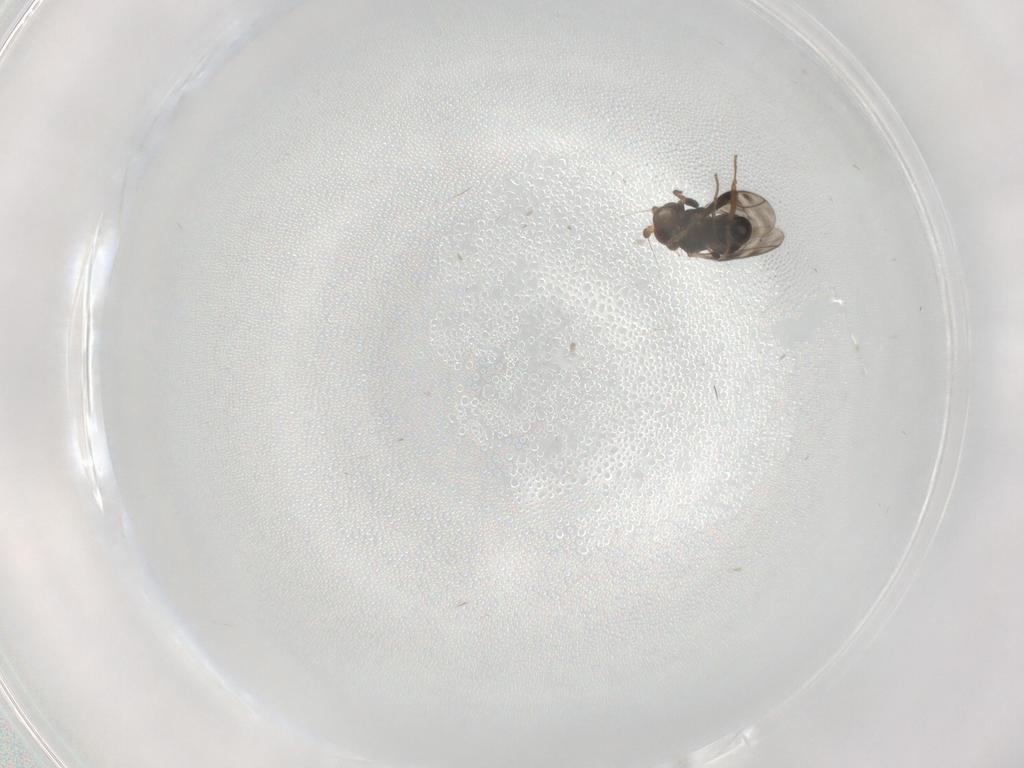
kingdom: Animalia
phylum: Arthropoda
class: Insecta
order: Diptera
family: Sphaeroceridae
